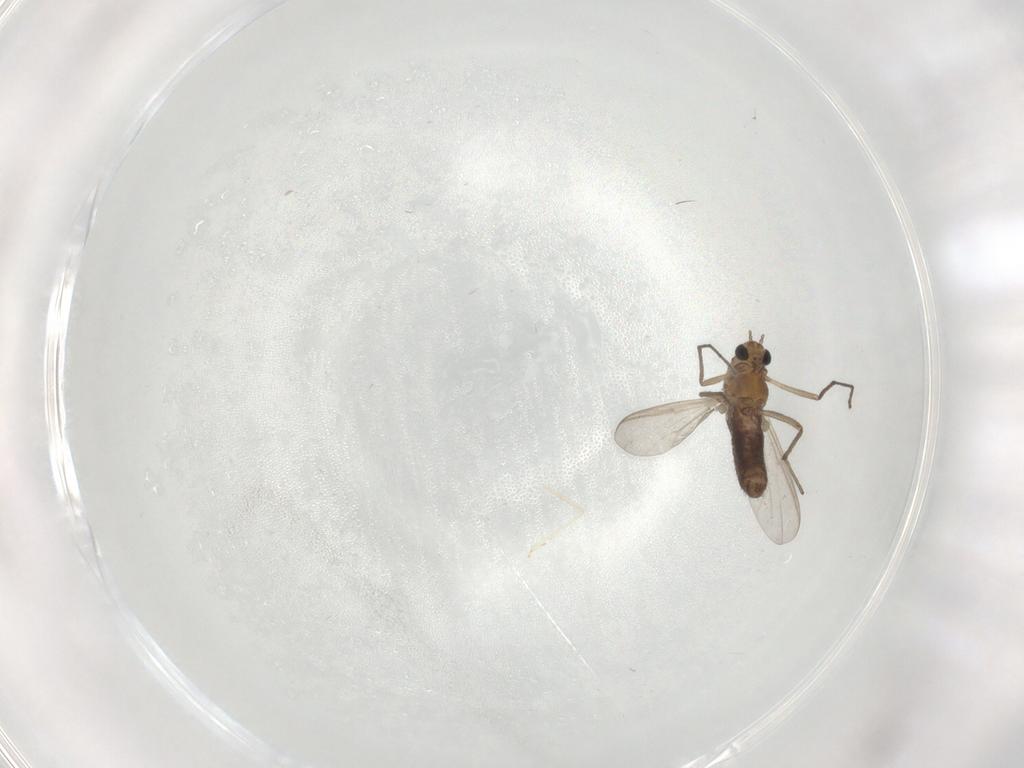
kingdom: Animalia
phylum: Arthropoda
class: Insecta
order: Diptera
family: Chironomidae
